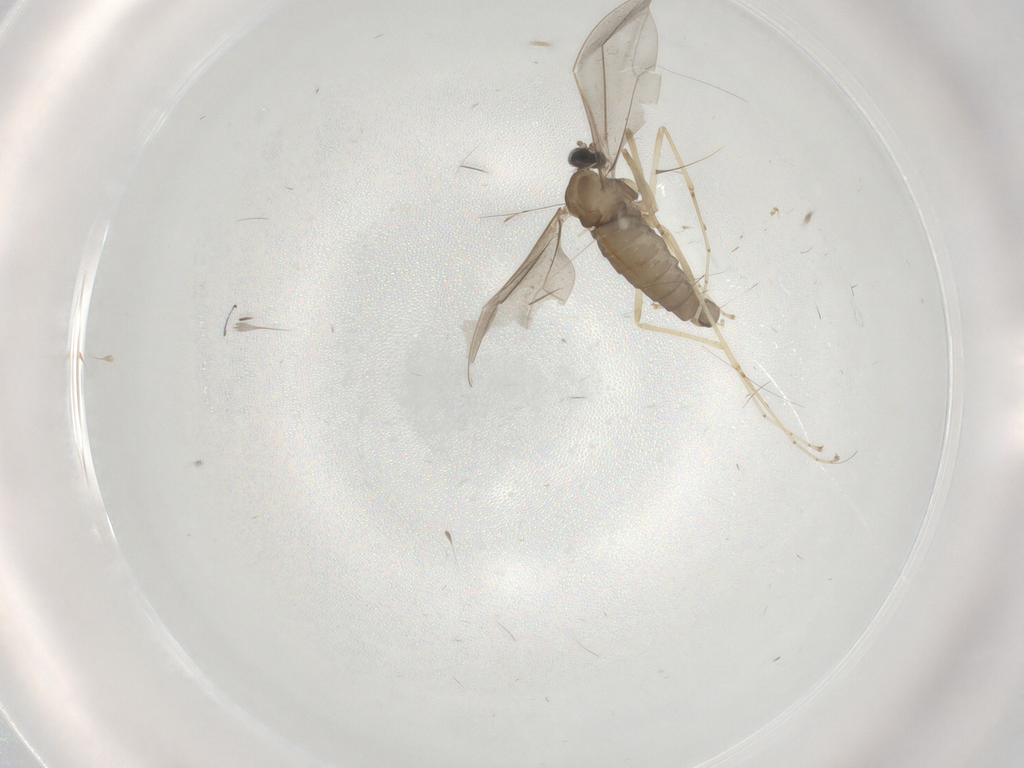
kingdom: Animalia
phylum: Arthropoda
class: Insecta
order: Diptera
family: Cecidomyiidae
